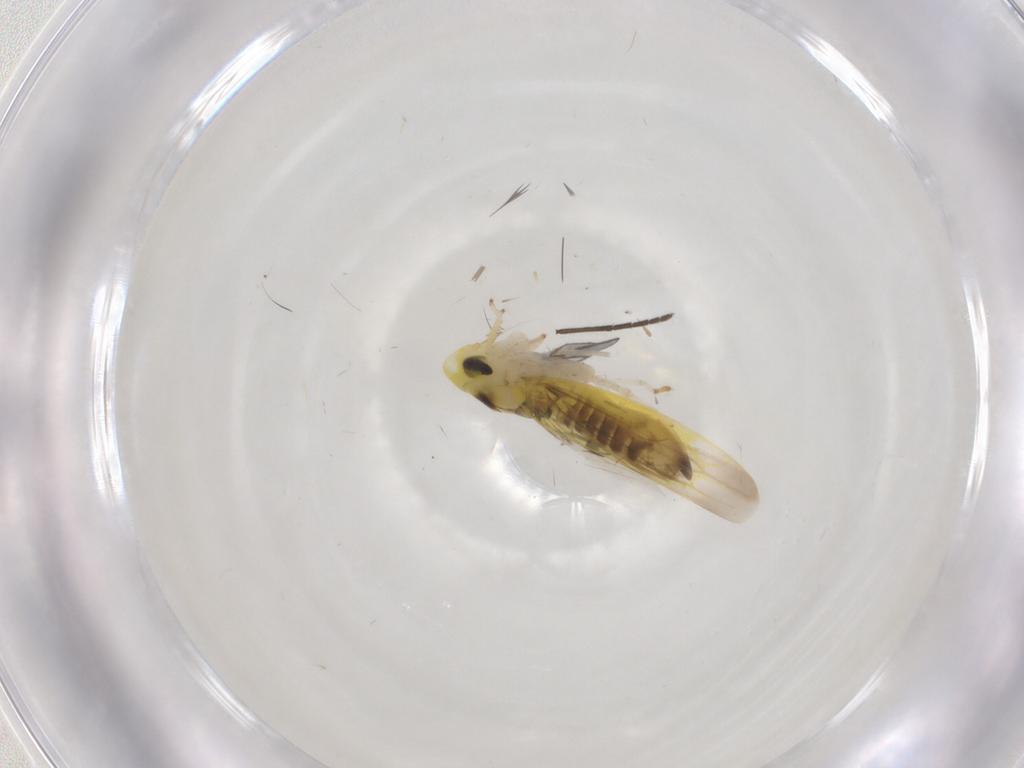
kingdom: Animalia
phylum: Arthropoda
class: Insecta
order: Hemiptera
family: Cicadellidae
